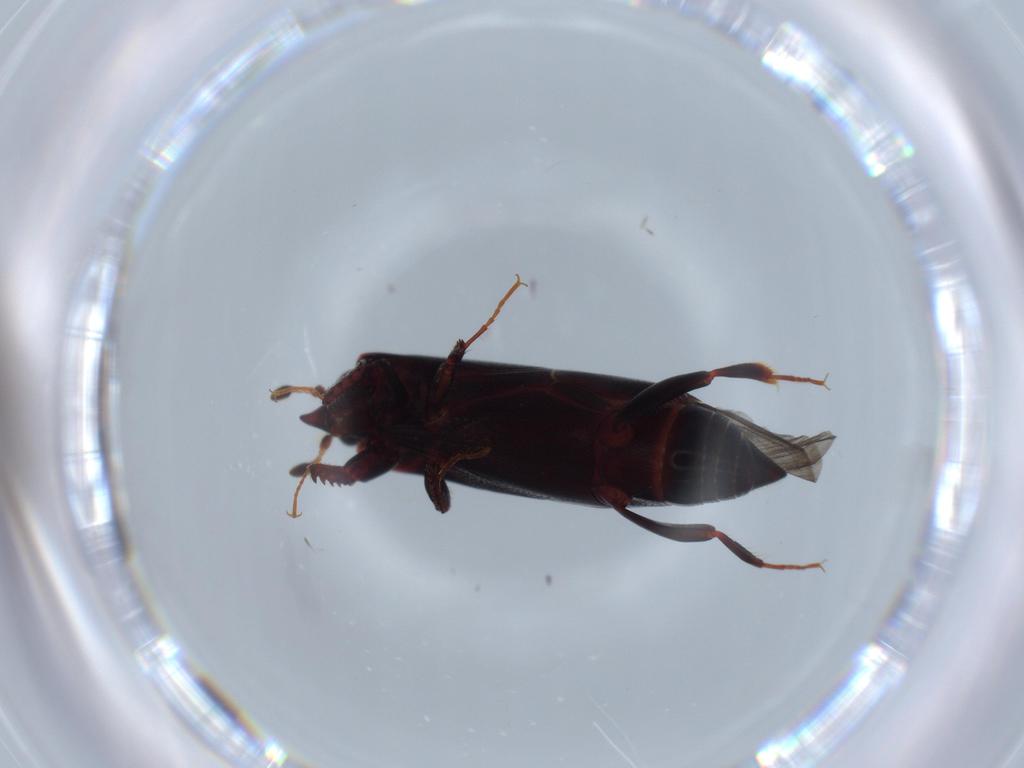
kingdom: Animalia
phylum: Arthropoda
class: Insecta
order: Coleoptera
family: Histeridae
